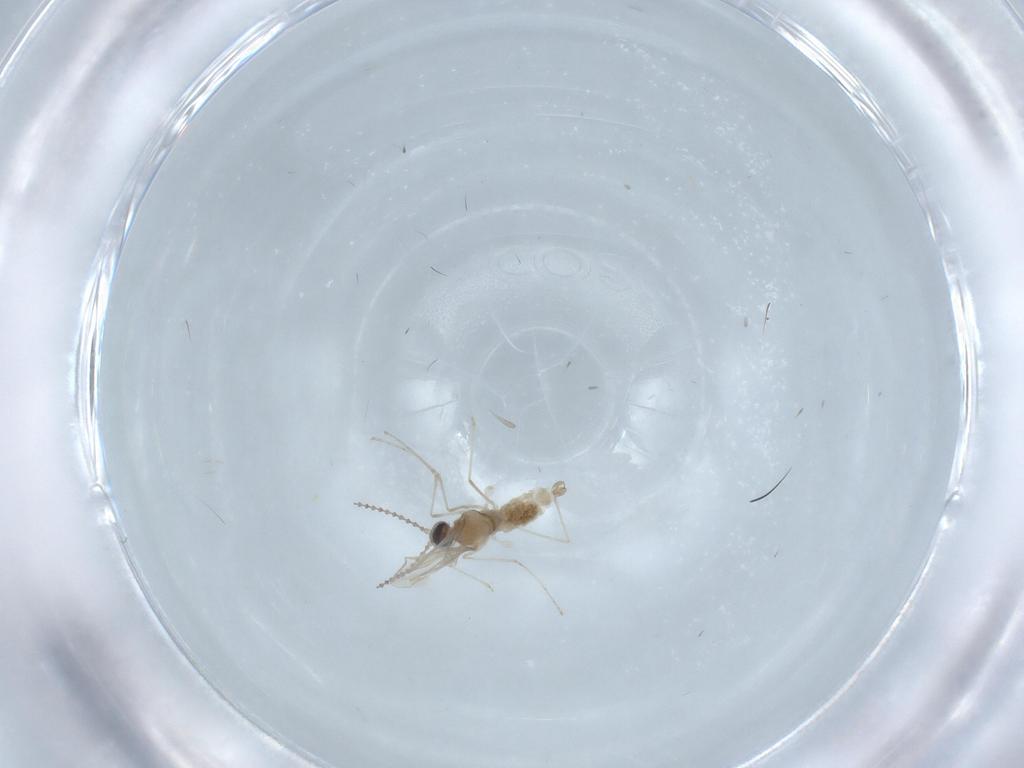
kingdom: Animalia
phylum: Arthropoda
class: Insecta
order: Diptera
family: Cecidomyiidae
